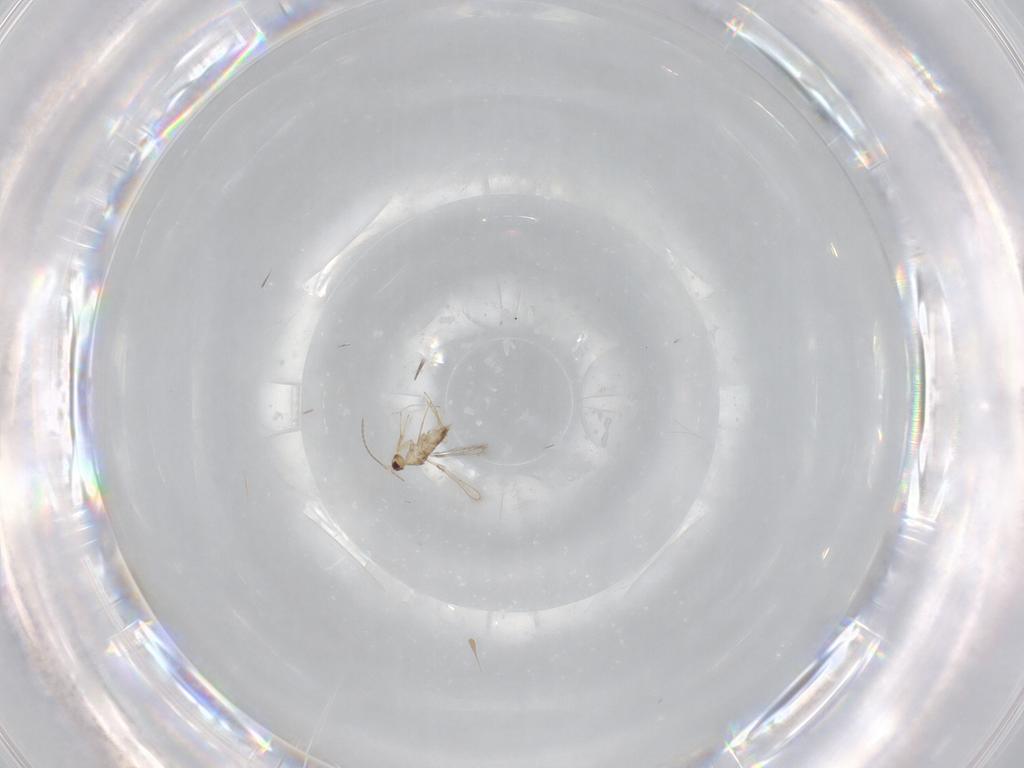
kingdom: Animalia
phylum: Arthropoda
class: Insecta
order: Hymenoptera
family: Mymaridae
